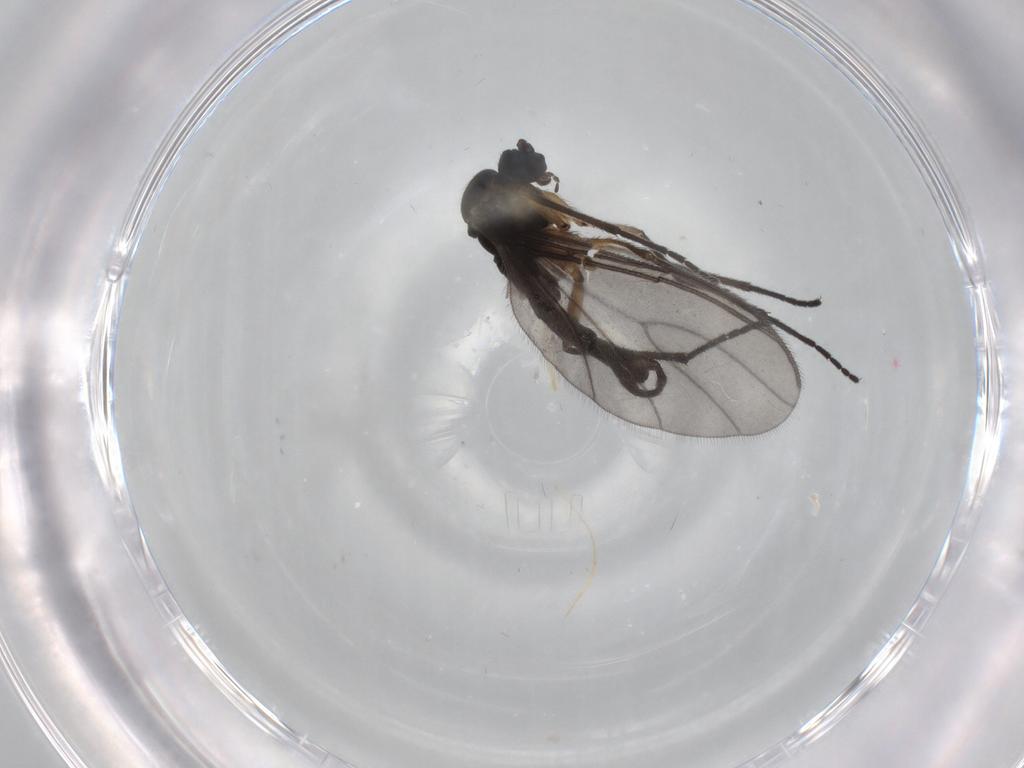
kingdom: Animalia
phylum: Arthropoda
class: Insecta
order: Diptera
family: Sciaridae
